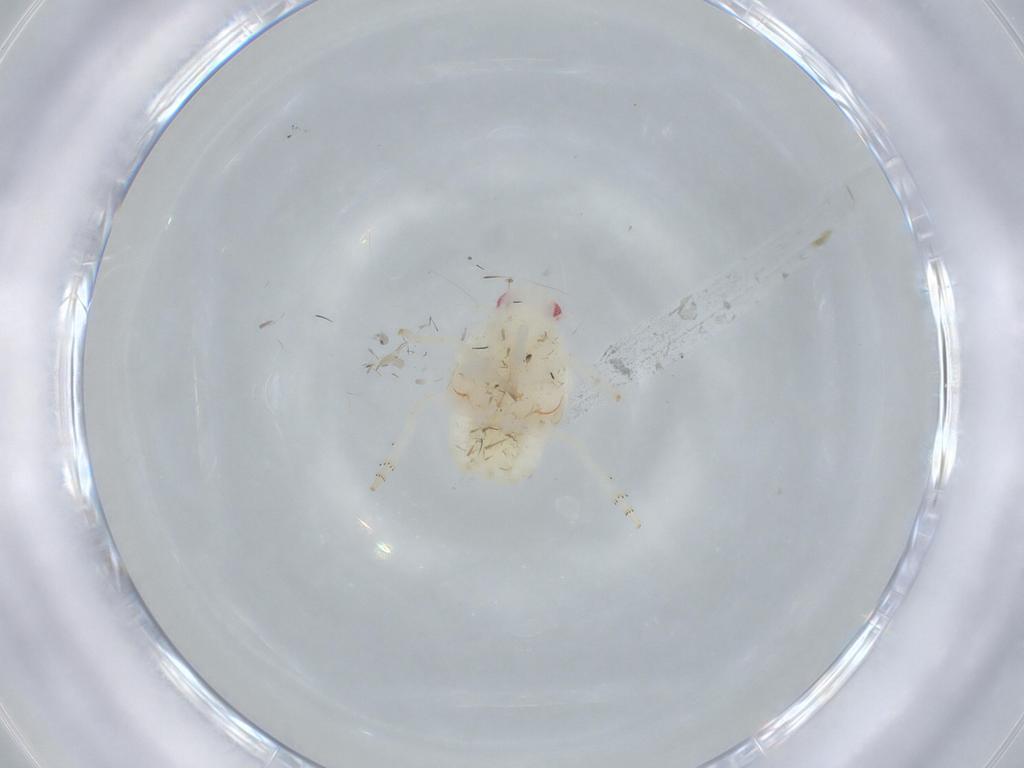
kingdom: Animalia
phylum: Arthropoda
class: Insecta
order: Hemiptera
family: Flatidae
